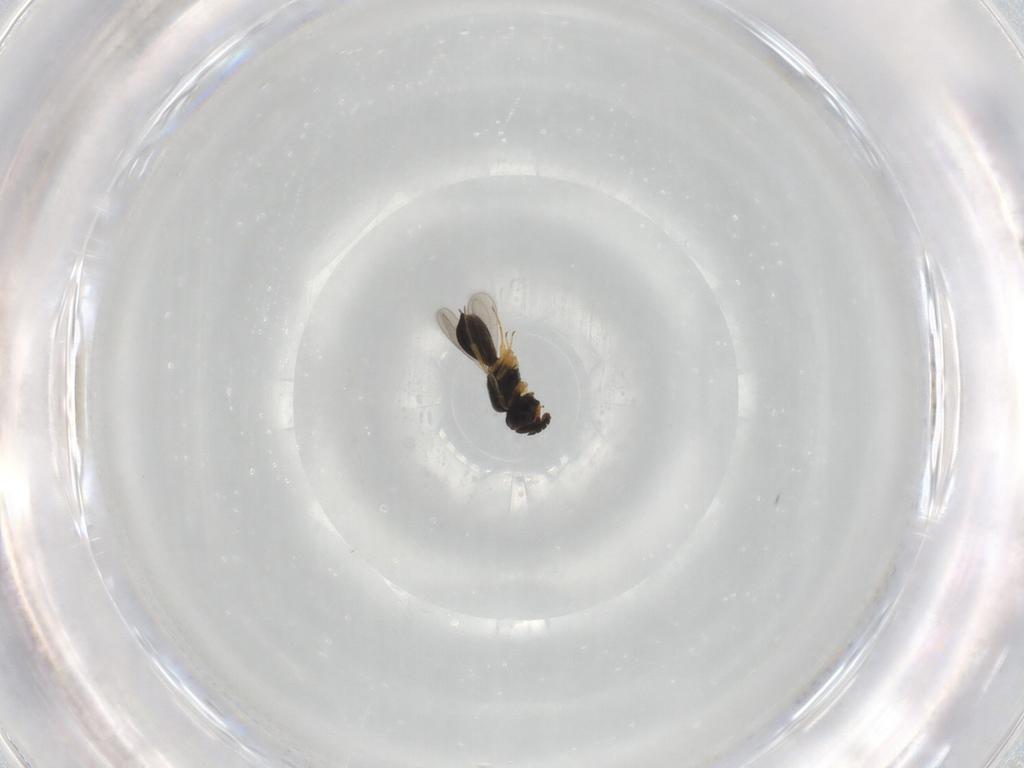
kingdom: Animalia
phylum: Arthropoda
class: Insecta
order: Hymenoptera
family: Scelionidae
